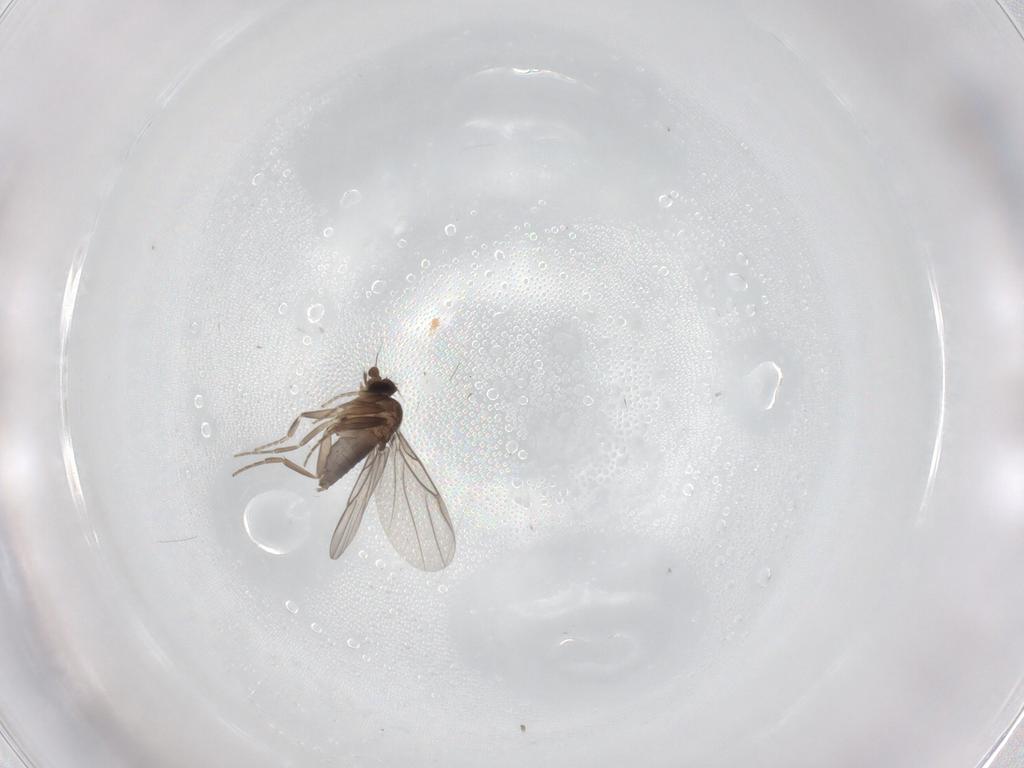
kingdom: Animalia
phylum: Arthropoda
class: Insecta
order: Diptera
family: Phoridae
